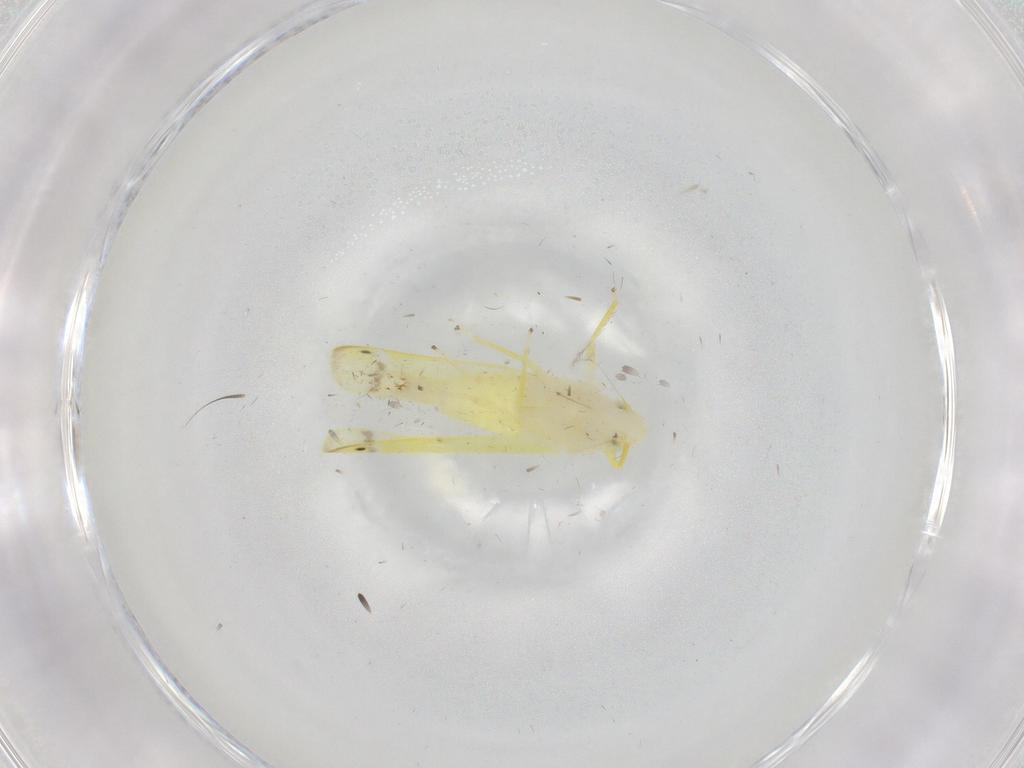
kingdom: Animalia
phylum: Arthropoda
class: Insecta
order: Hemiptera
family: Cicadellidae
